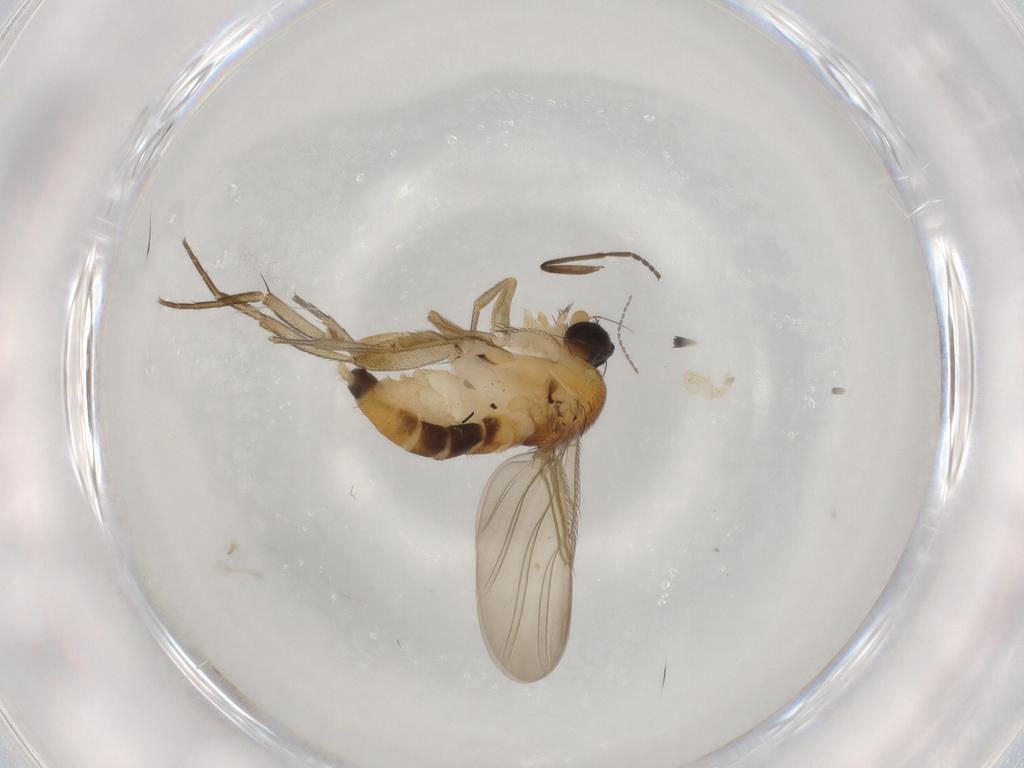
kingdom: Animalia
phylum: Arthropoda
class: Insecta
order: Diptera
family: Phoridae
